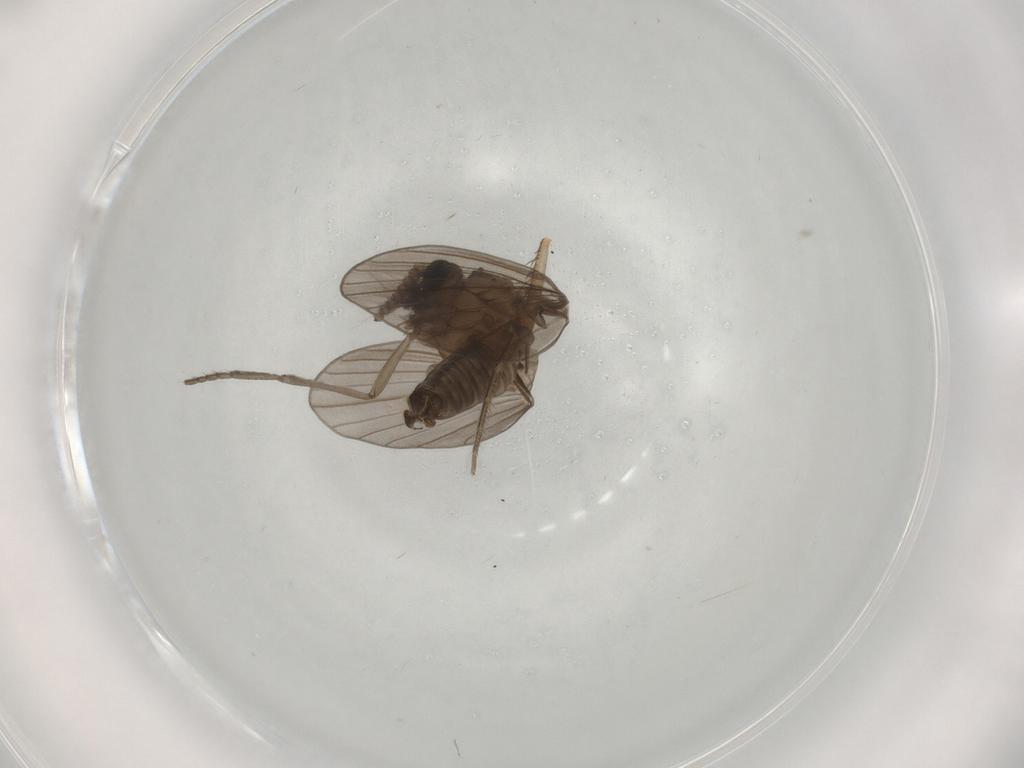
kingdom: Animalia
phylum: Arthropoda
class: Insecta
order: Diptera
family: Psychodidae
